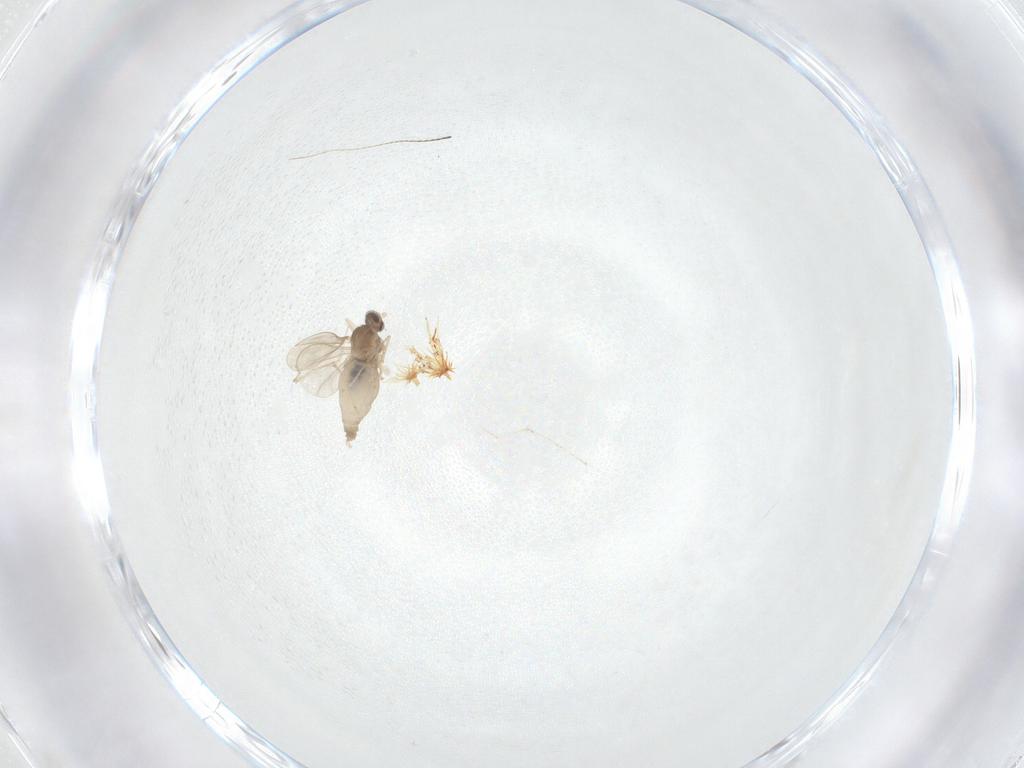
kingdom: Animalia
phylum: Arthropoda
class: Insecta
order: Diptera
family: Cecidomyiidae
